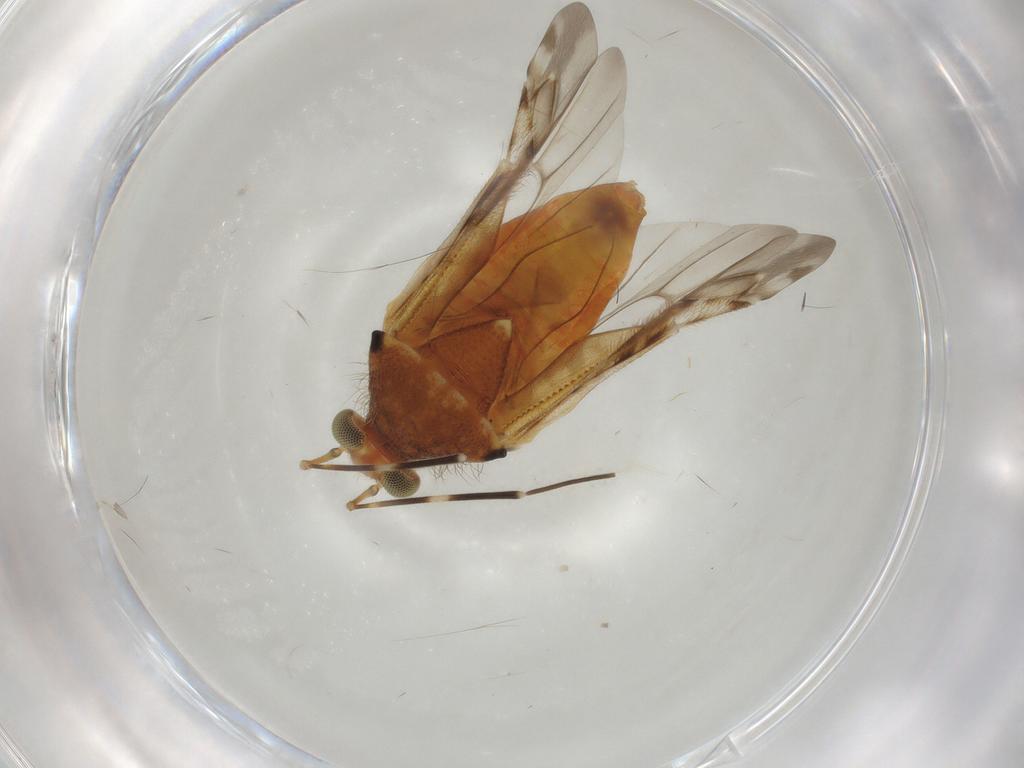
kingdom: Animalia
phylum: Arthropoda
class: Insecta
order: Hemiptera
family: Miridae
